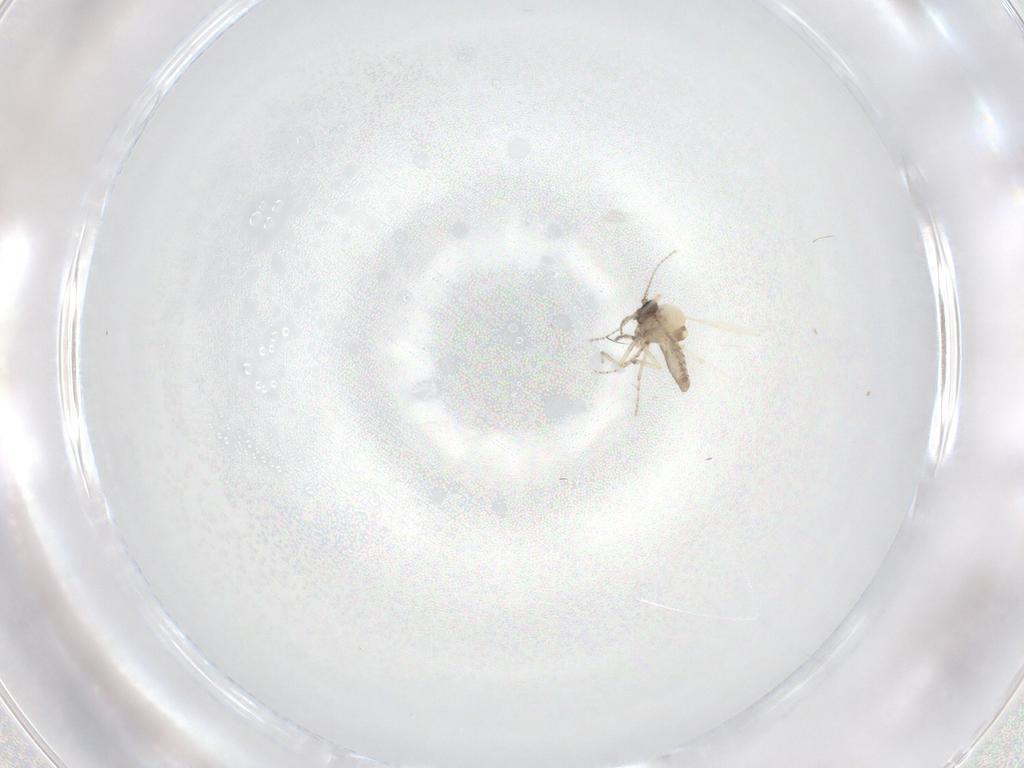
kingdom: Animalia
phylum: Arthropoda
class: Insecta
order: Diptera
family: Ceratopogonidae
